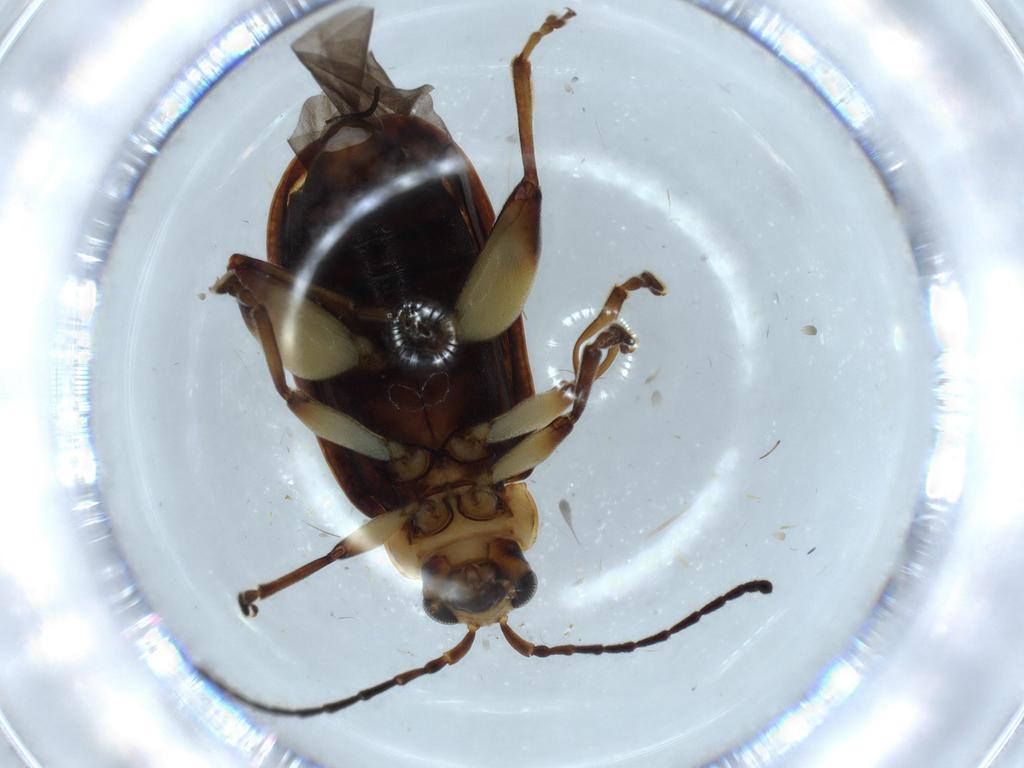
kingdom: Animalia
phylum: Arthropoda
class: Insecta
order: Coleoptera
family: Chrysomelidae
